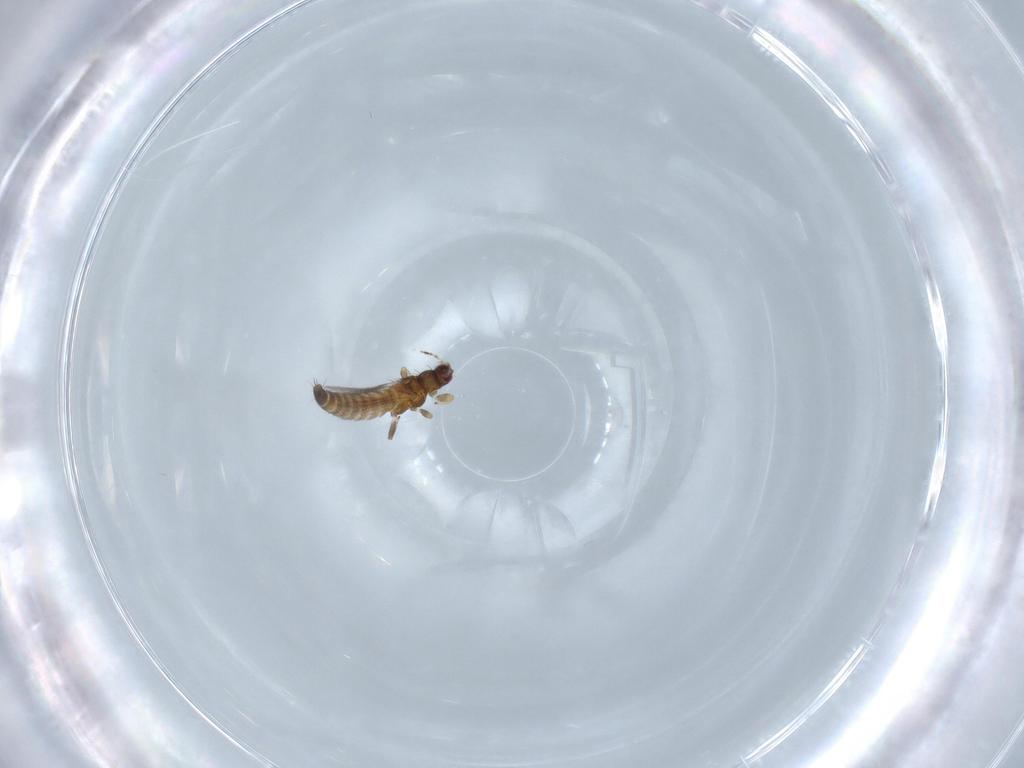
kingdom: Animalia
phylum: Arthropoda
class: Insecta
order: Thysanoptera
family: Thripidae
